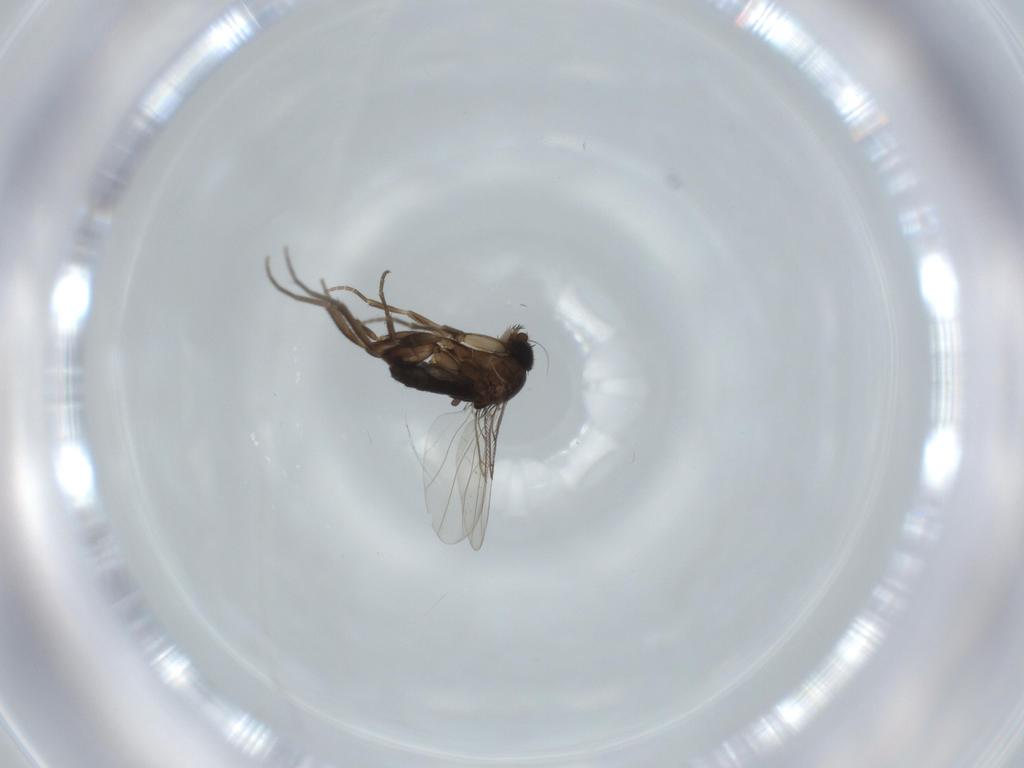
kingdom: Animalia
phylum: Arthropoda
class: Insecta
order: Diptera
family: Phoridae
